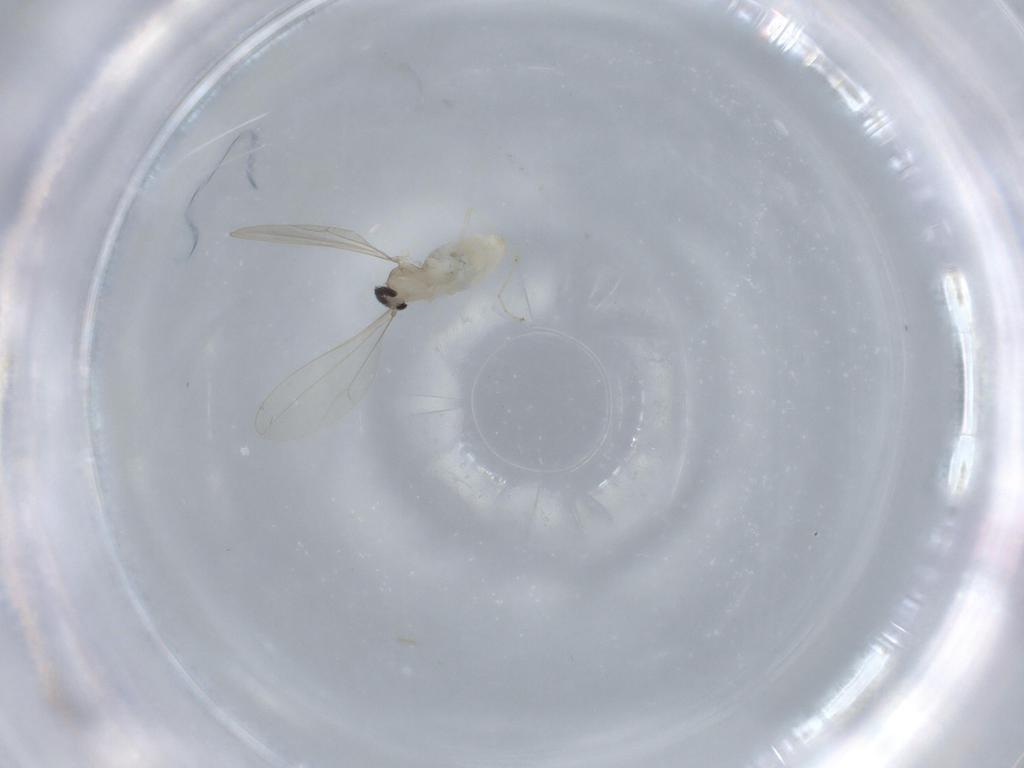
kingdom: Animalia
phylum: Arthropoda
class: Insecta
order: Diptera
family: Cecidomyiidae
